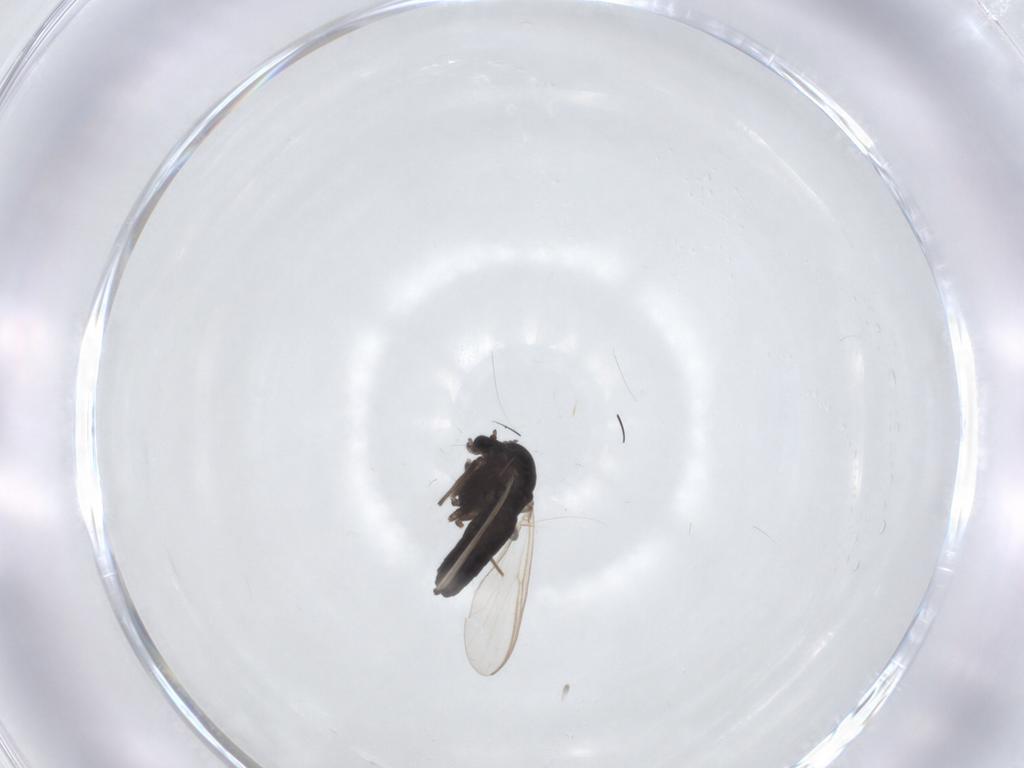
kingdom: Animalia
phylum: Arthropoda
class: Insecta
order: Diptera
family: Chironomidae
